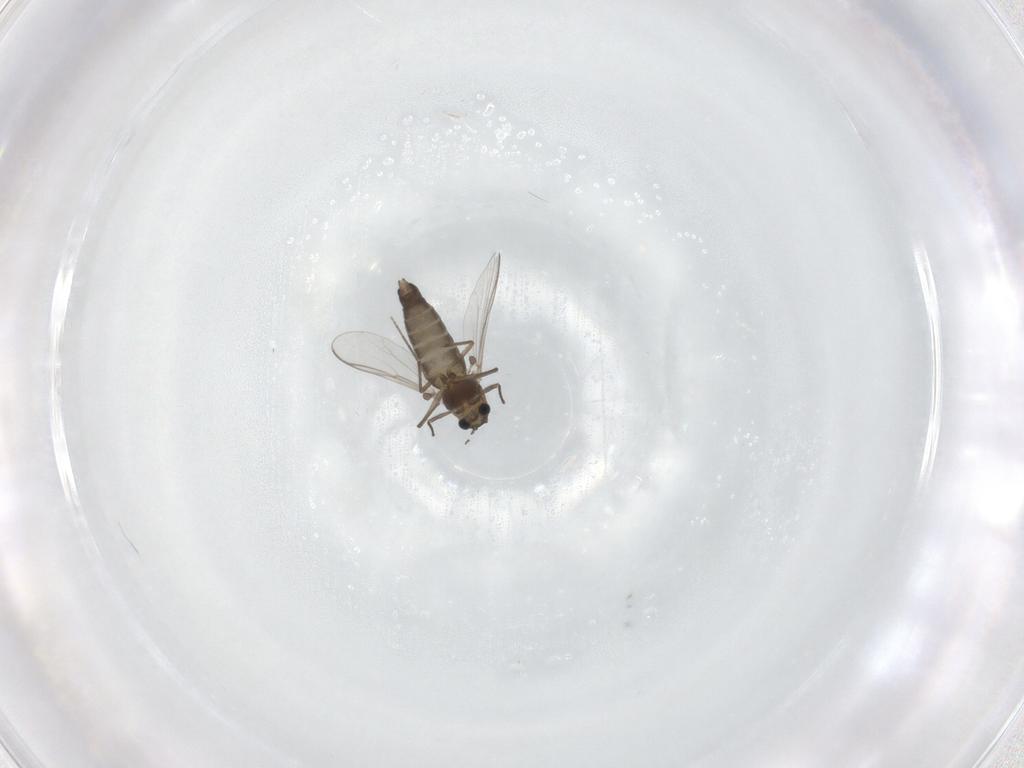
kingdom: Animalia
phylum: Arthropoda
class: Insecta
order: Diptera
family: Chironomidae
